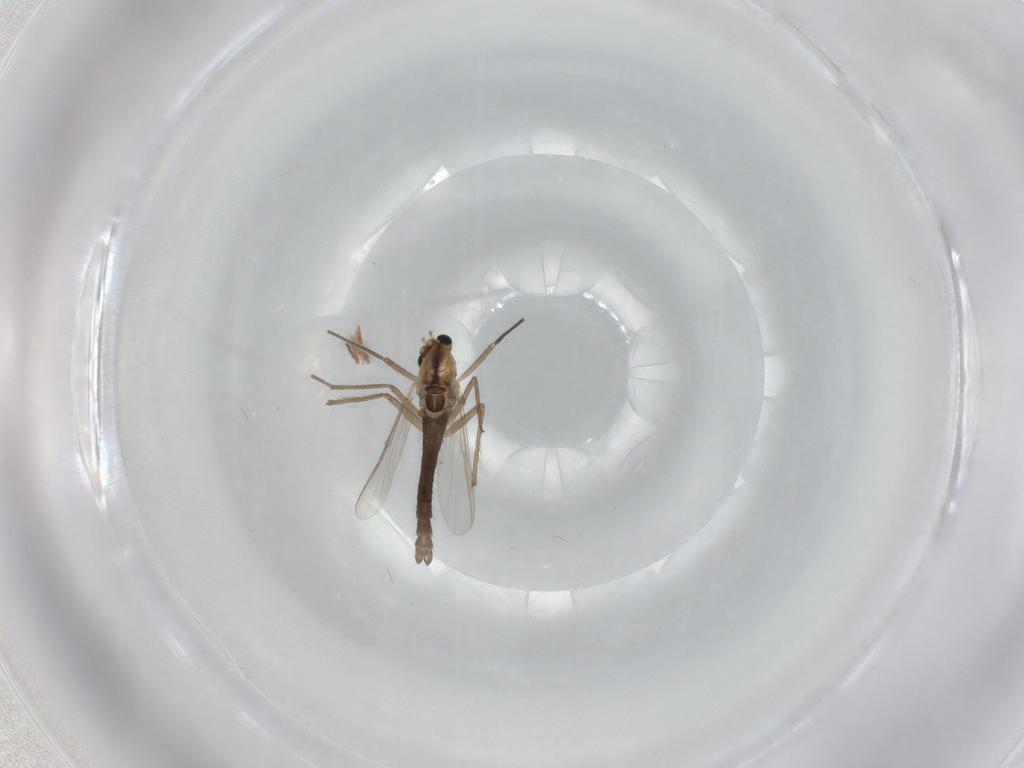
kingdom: Animalia
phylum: Arthropoda
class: Insecta
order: Diptera
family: Chironomidae
